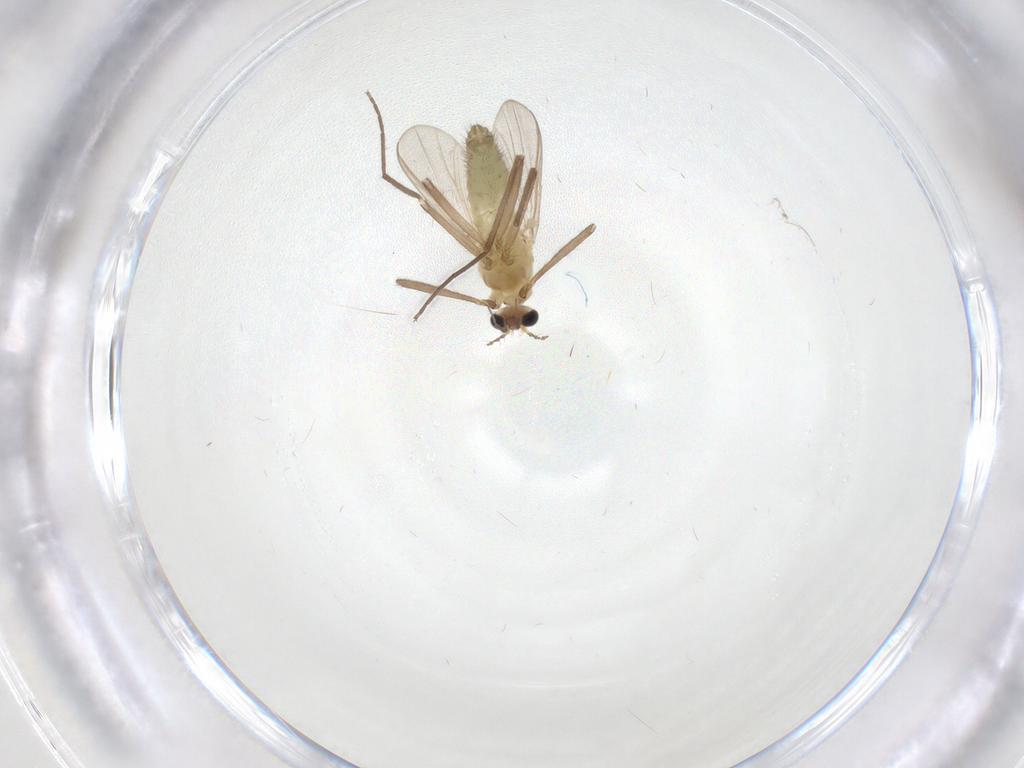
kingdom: Animalia
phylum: Arthropoda
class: Insecta
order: Diptera
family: Chironomidae
